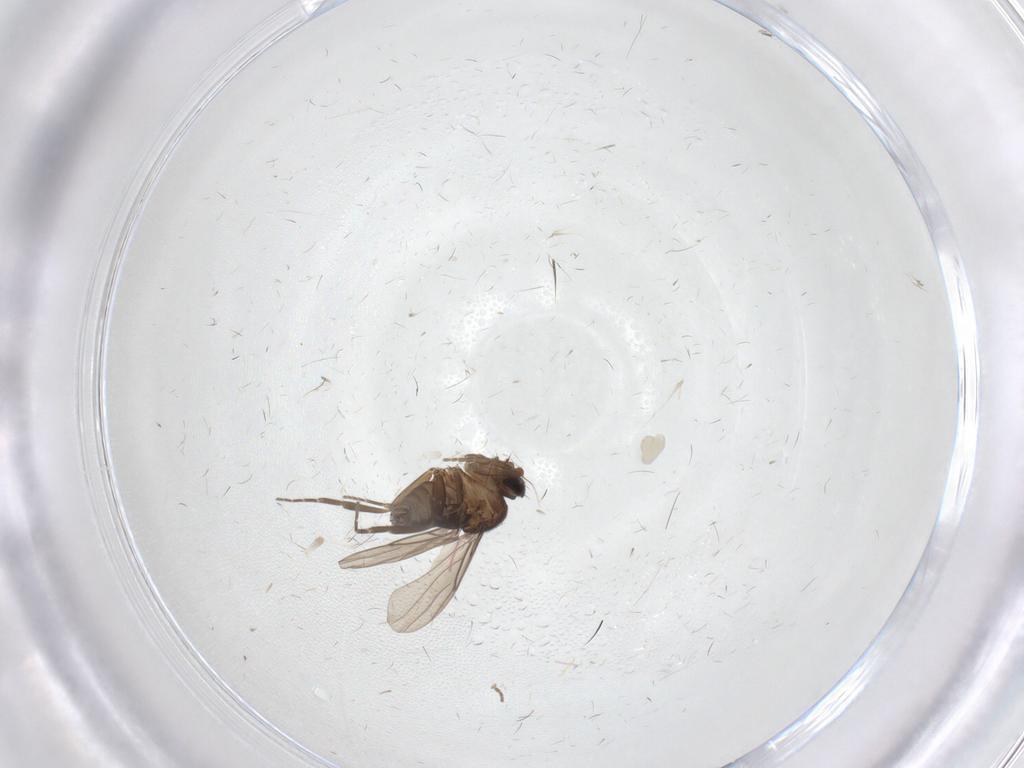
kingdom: Animalia
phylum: Arthropoda
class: Insecta
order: Diptera
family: Limoniidae
